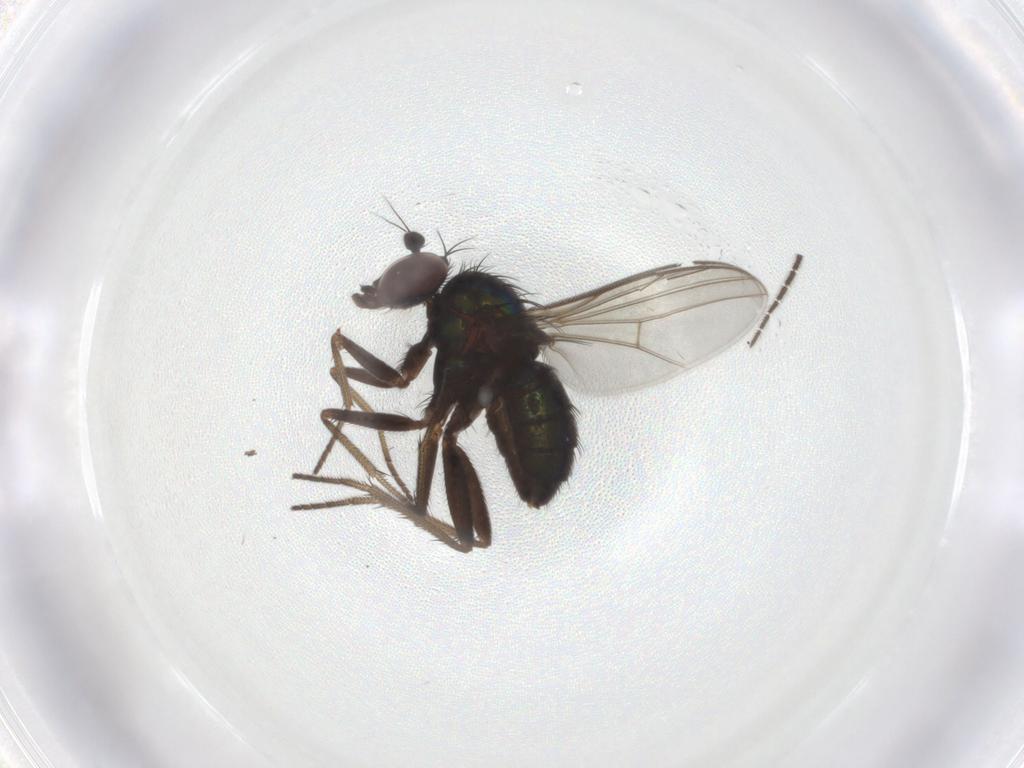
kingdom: Animalia
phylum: Arthropoda
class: Insecta
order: Diptera
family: Dolichopodidae
